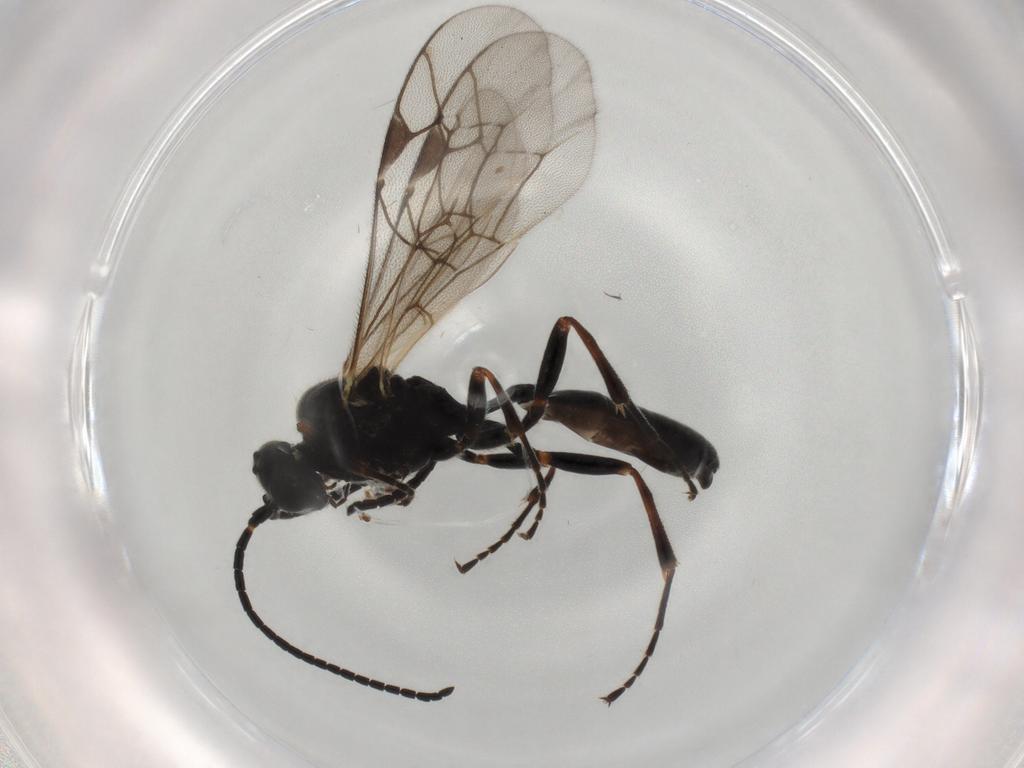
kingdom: Animalia
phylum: Arthropoda
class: Insecta
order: Hymenoptera
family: Ichneumonidae
